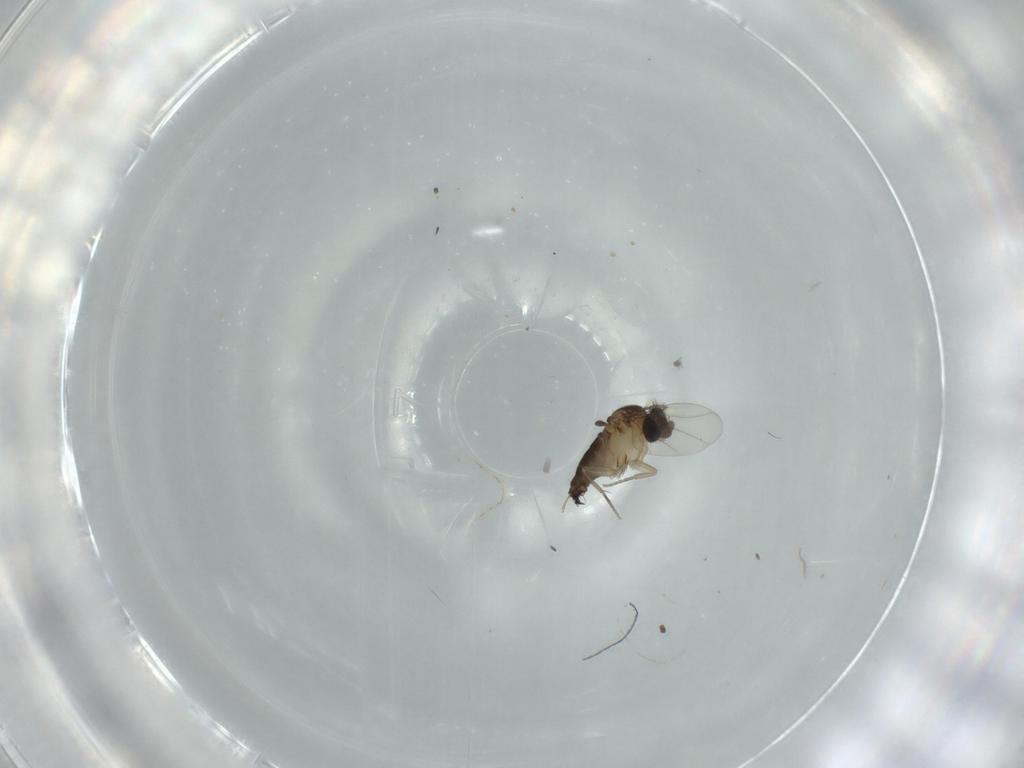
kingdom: Animalia
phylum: Arthropoda
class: Insecta
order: Diptera
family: Phoridae
